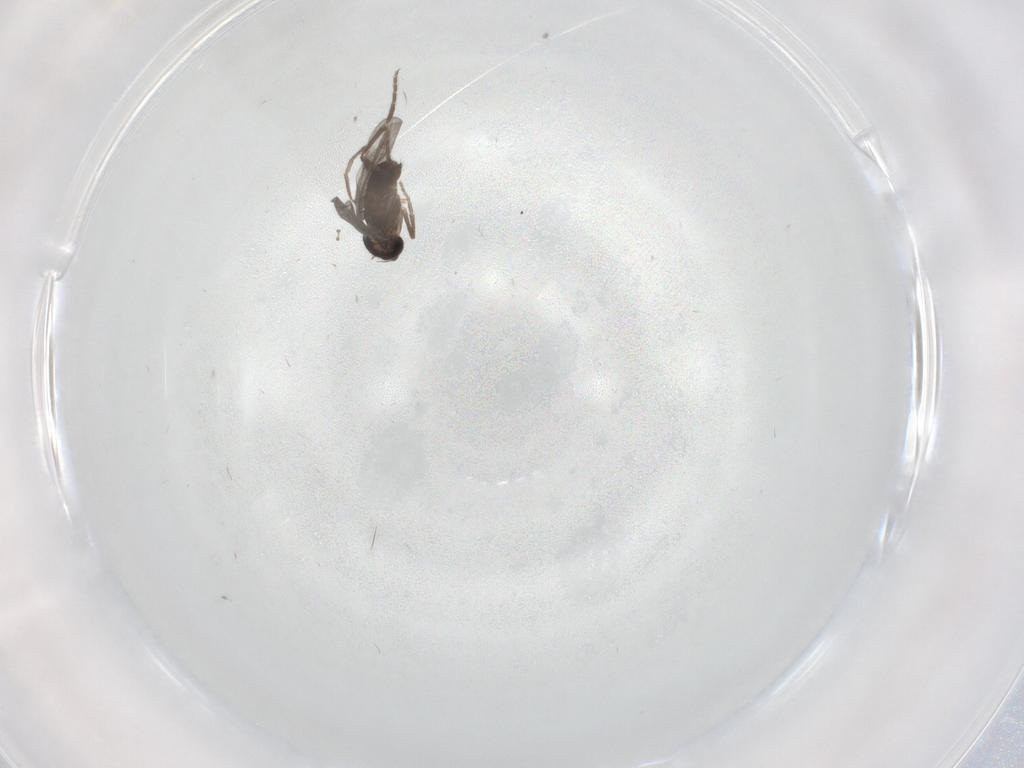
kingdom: Animalia
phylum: Arthropoda
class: Insecta
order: Diptera
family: Phoridae
